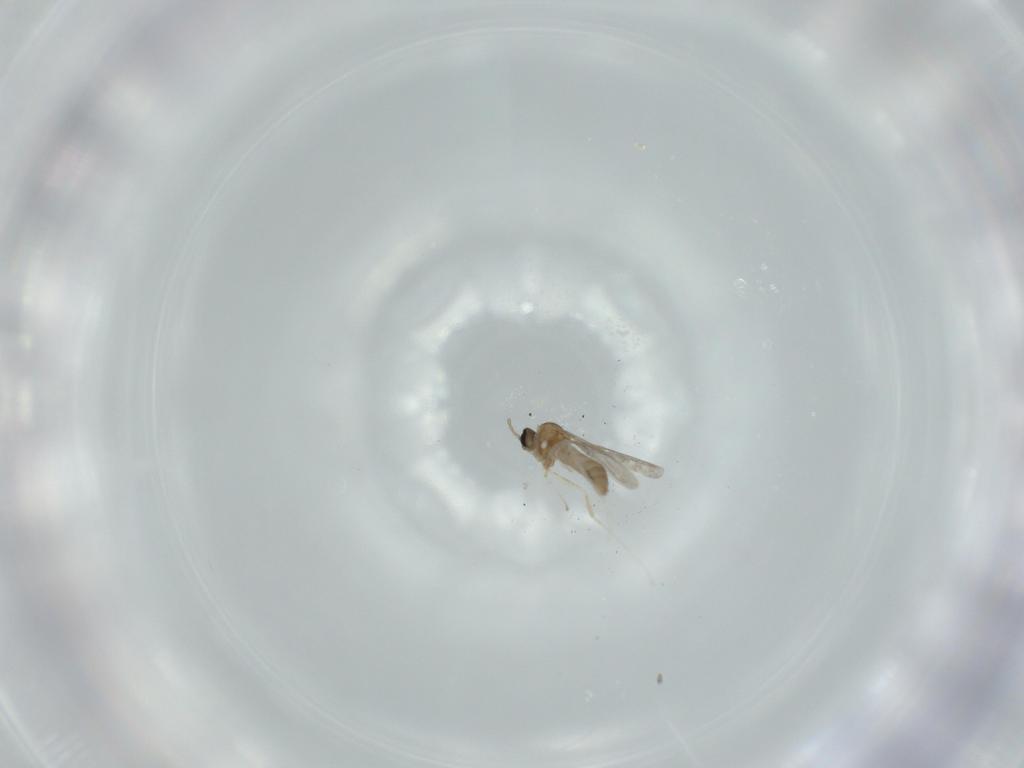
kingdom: Animalia
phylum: Arthropoda
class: Insecta
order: Diptera
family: Cecidomyiidae
